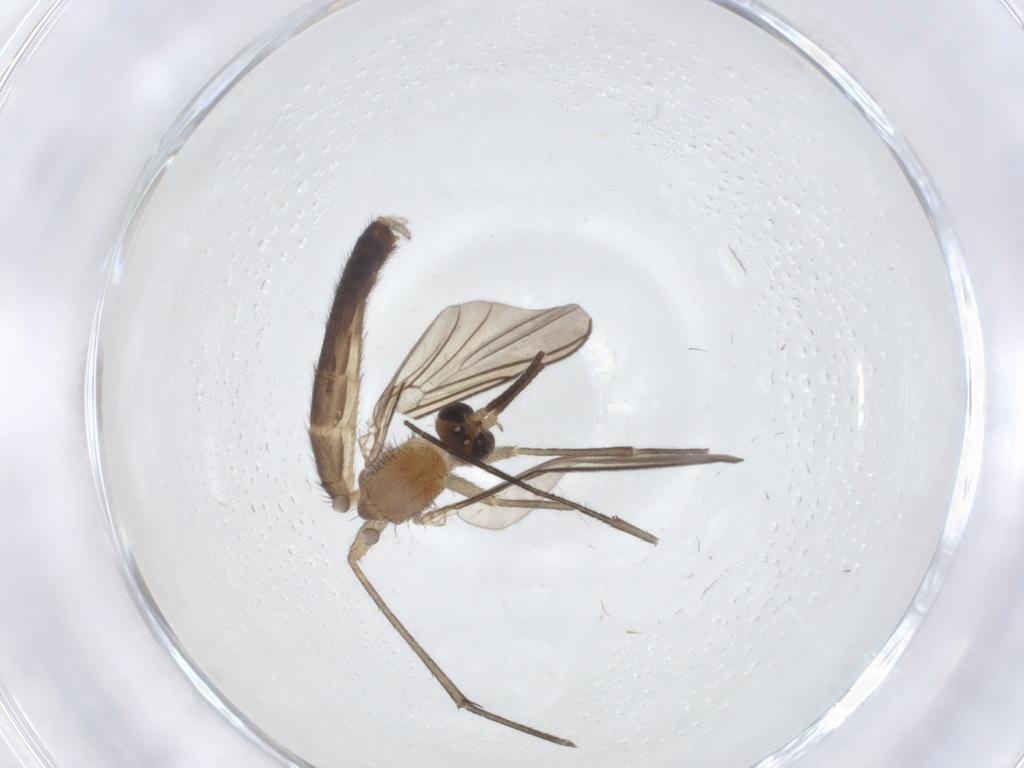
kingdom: Animalia
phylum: Arthropoda
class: Insecta
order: Diptera
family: Keroplatidae
